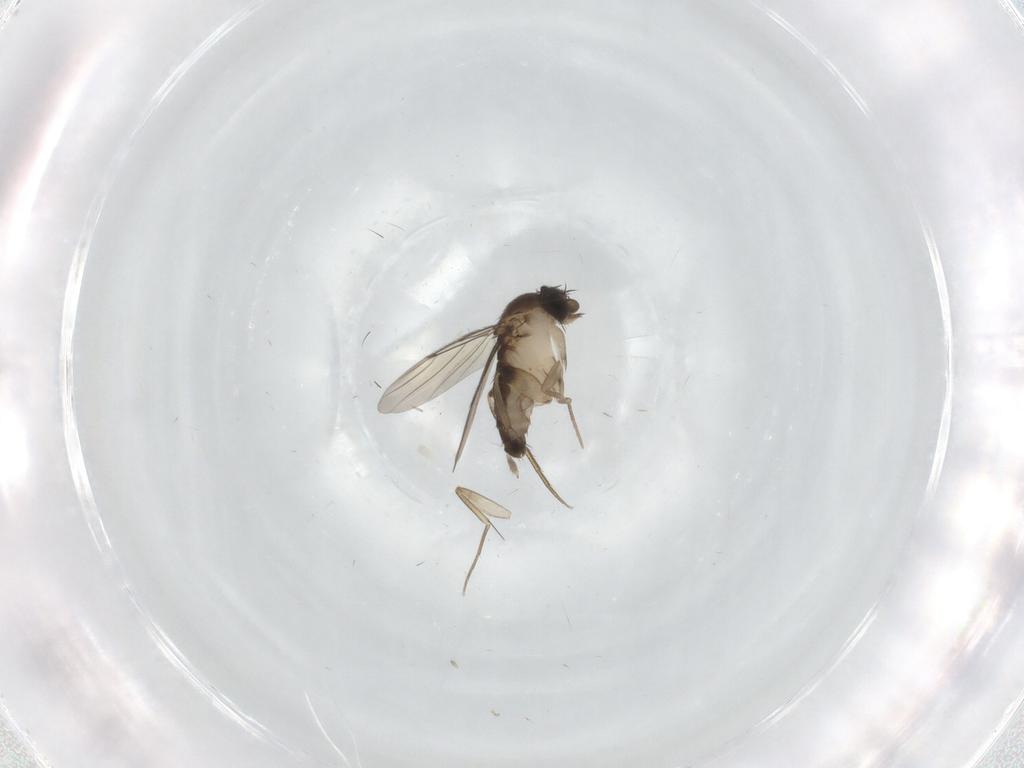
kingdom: Animalia
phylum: Arthropoda
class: Insecta
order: Diptera
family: Phoridae
